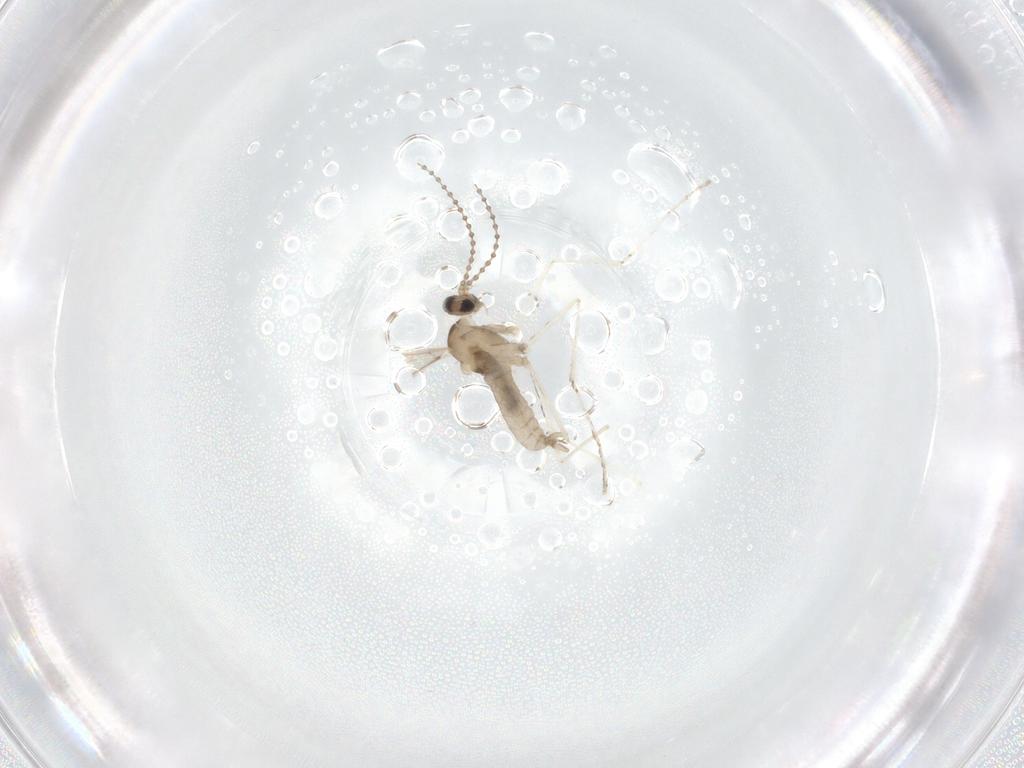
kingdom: Animalia
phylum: Arthropoda
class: Insecta
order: Diptera
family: Cecidomyiidae
